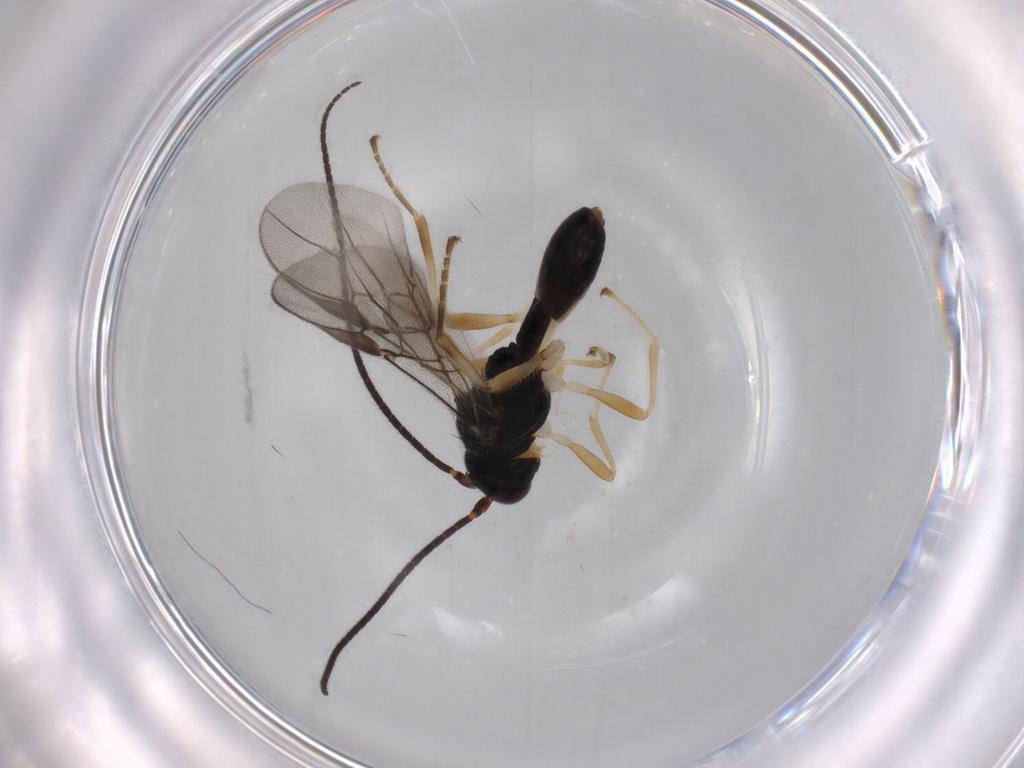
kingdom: Animalia
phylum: Arthropoda
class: Insecta
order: Hymenoptera
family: Braconidae
